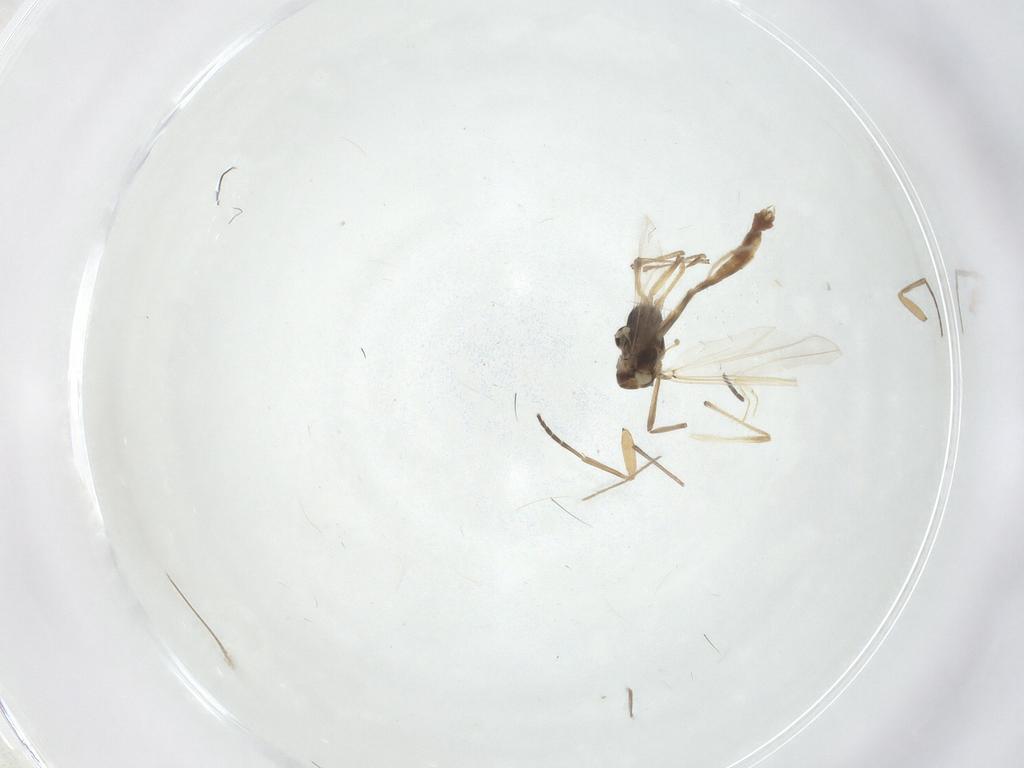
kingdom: Animalia
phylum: Arthropoda
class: Insecta
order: Diptera
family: Chironomidae
